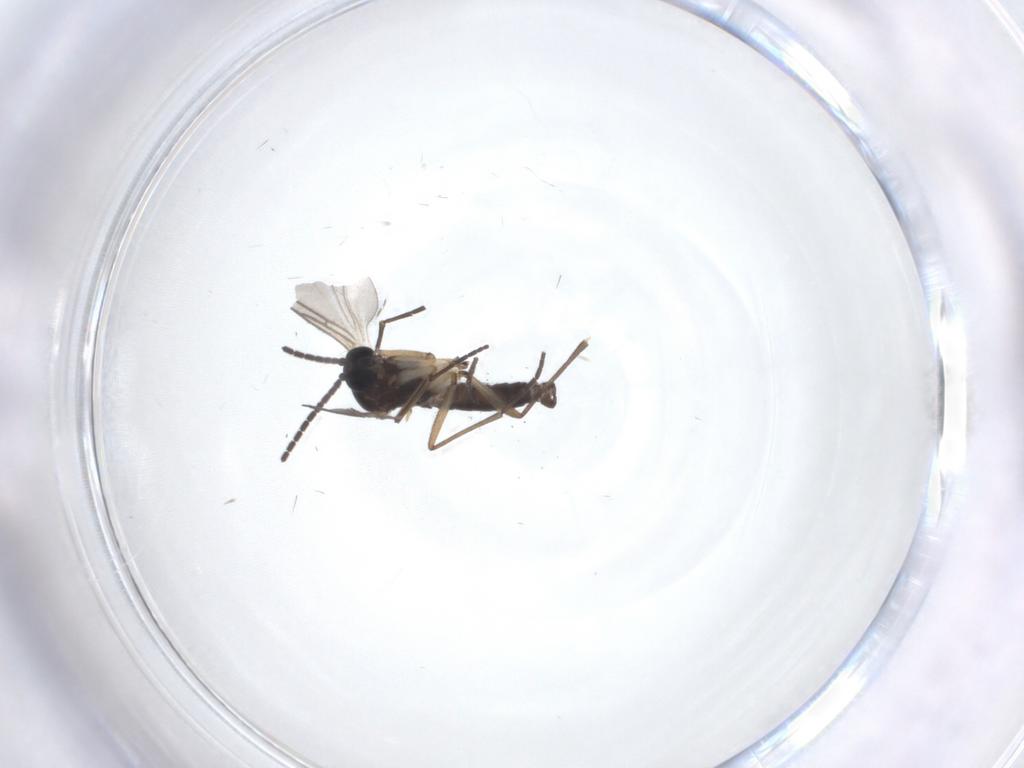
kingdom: Animalia
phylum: Arthropoda
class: Insecta
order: Diptera
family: Sciaridae
